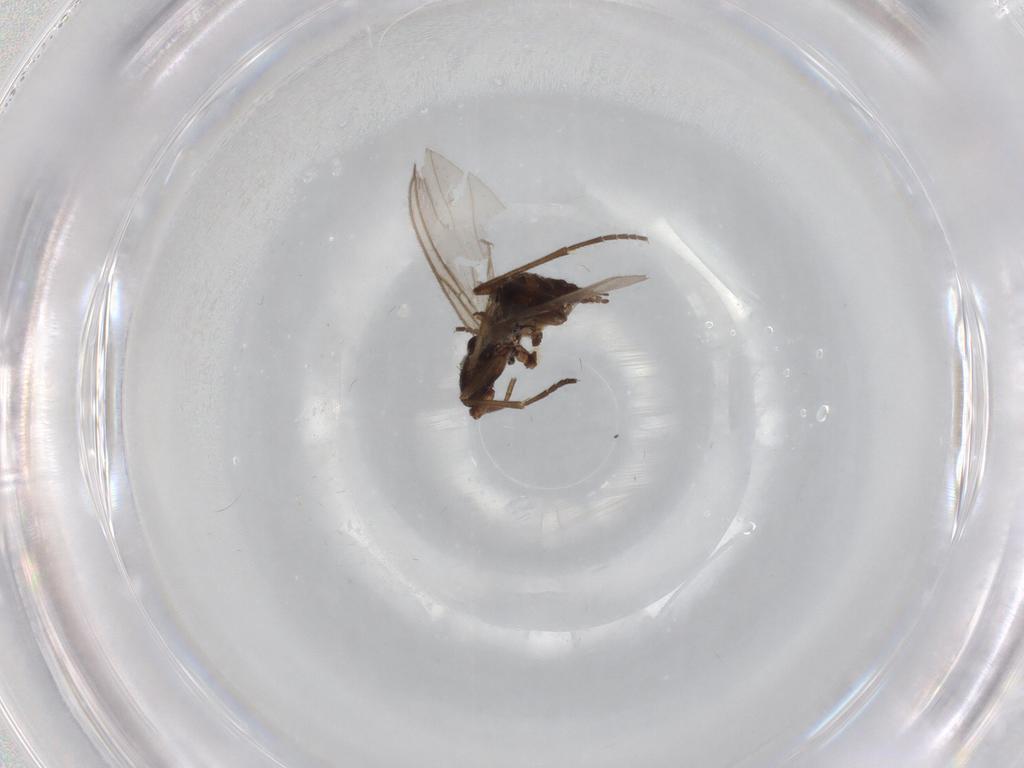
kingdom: Animalia
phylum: Arthropoda
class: Insecta
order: Diptera
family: Sciaridae
